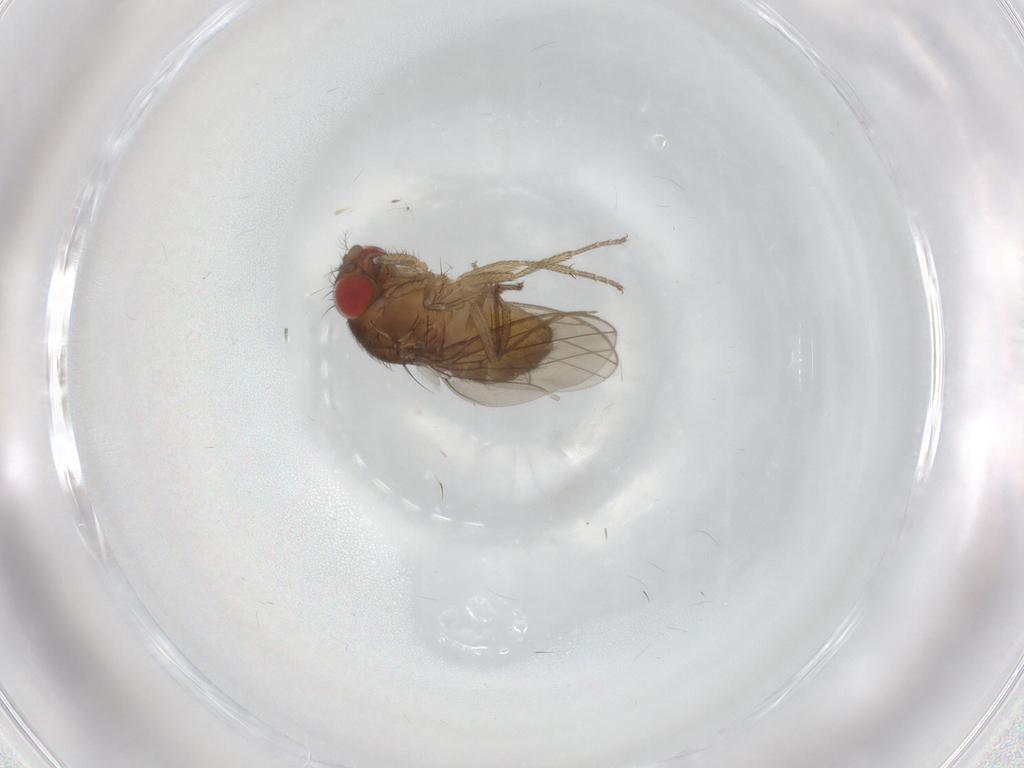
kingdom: Animalia
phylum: Arthropoda
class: Insecta
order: Diptera
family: Drosophilidae
